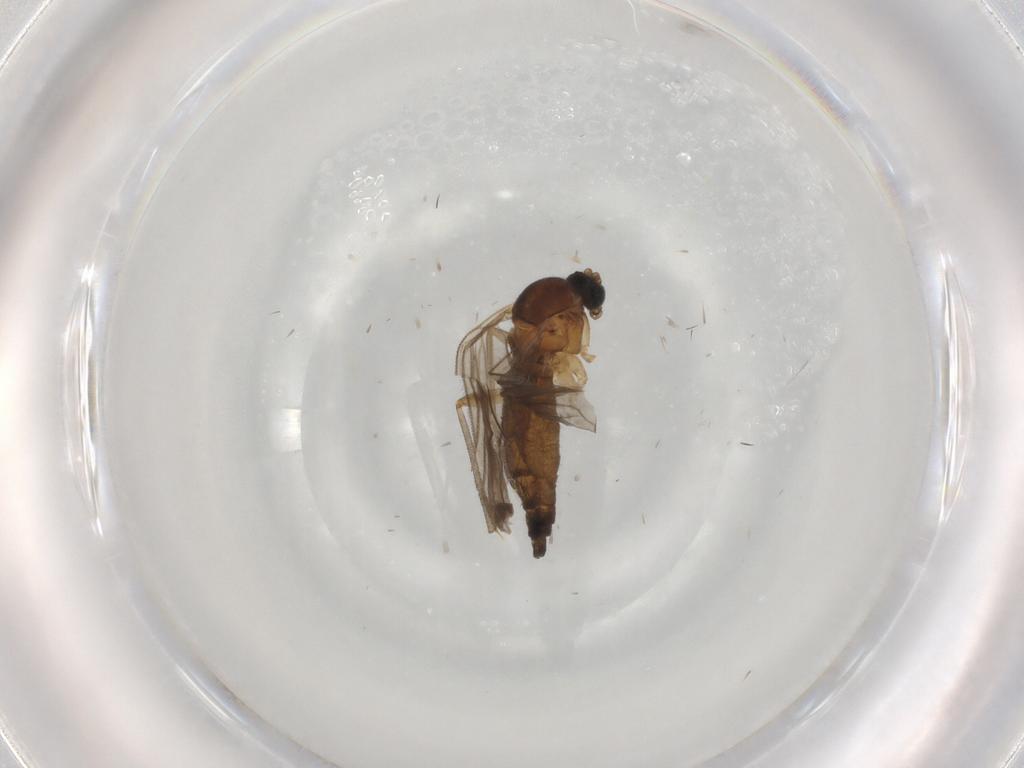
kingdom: Animalia
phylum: Arthropoda
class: Insecta
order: Diptera
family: Sciaridae
